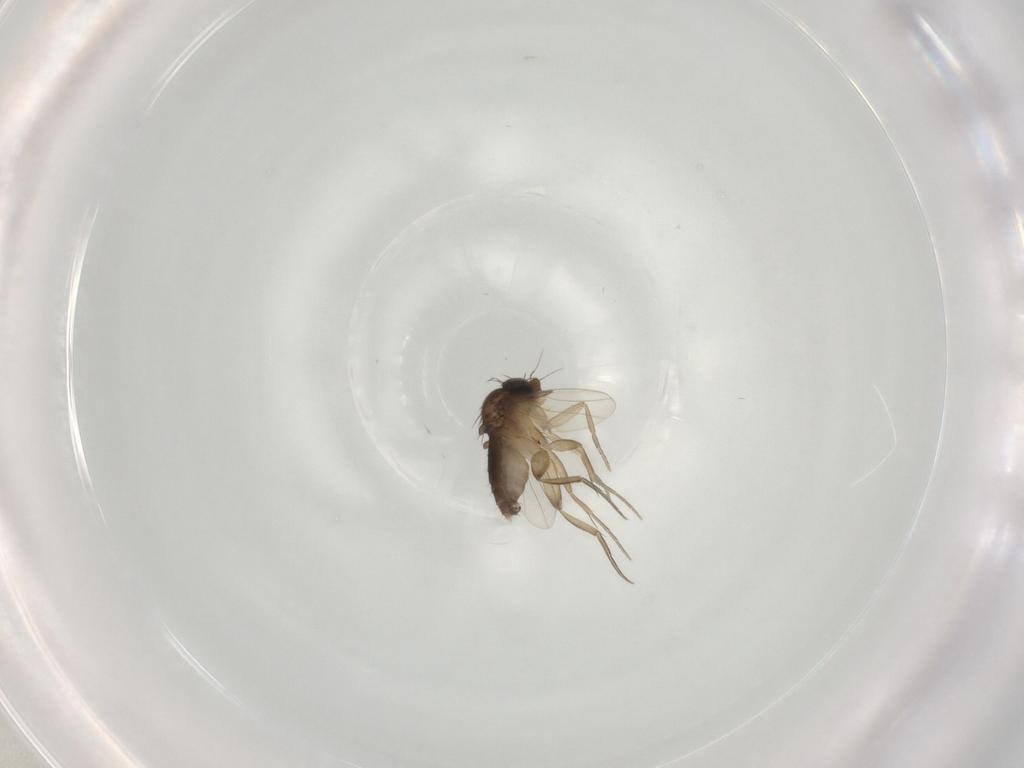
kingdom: Animalia
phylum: Arthropoda
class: Insecta
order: Diptera
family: Phoridae
